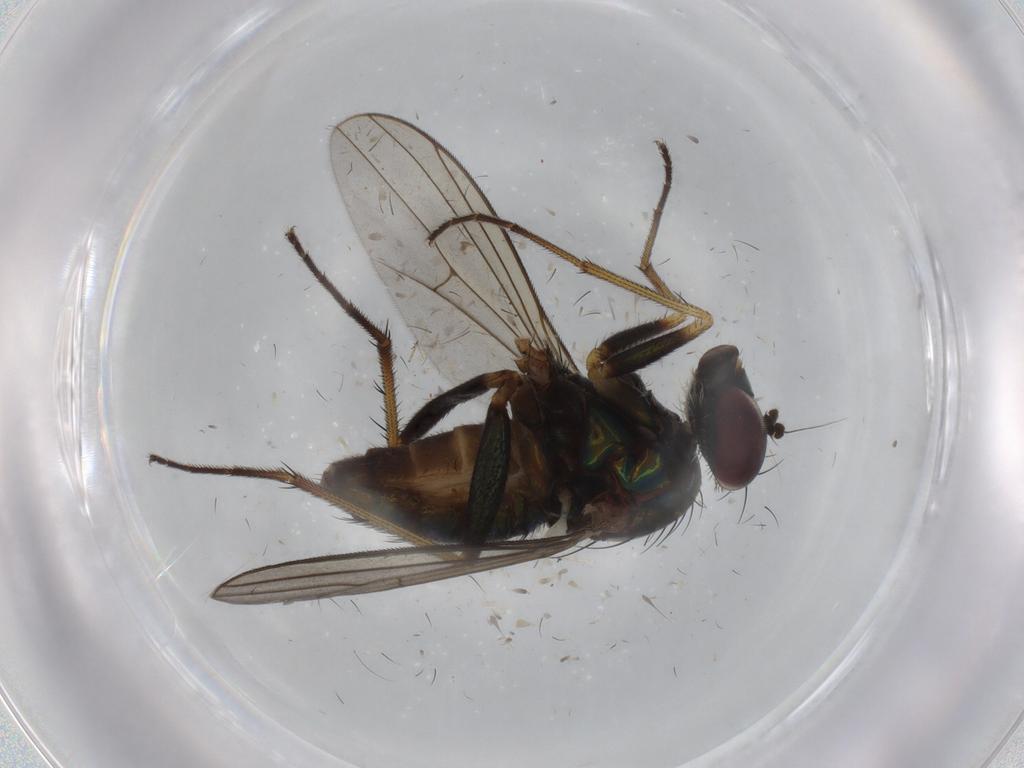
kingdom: Animalia
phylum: Arthropoda
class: Insecta
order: Diptera
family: Dolichopodidae
